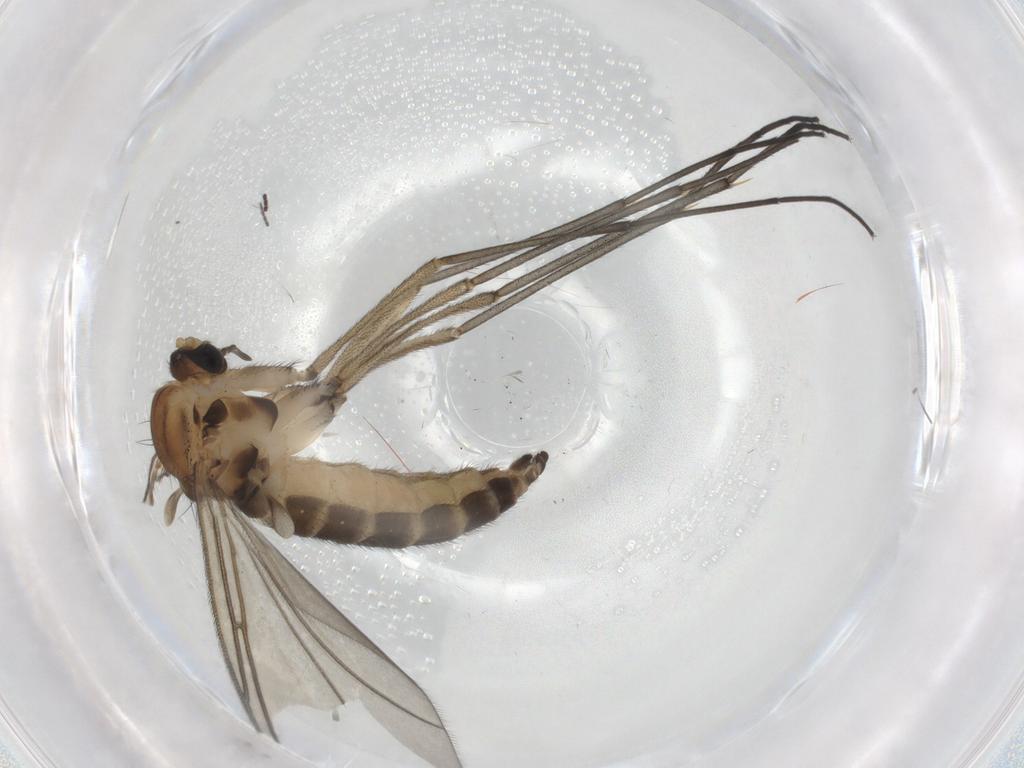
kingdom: Animalia
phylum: Arthropoda
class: Insecta
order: Diptera
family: Sciaridae
